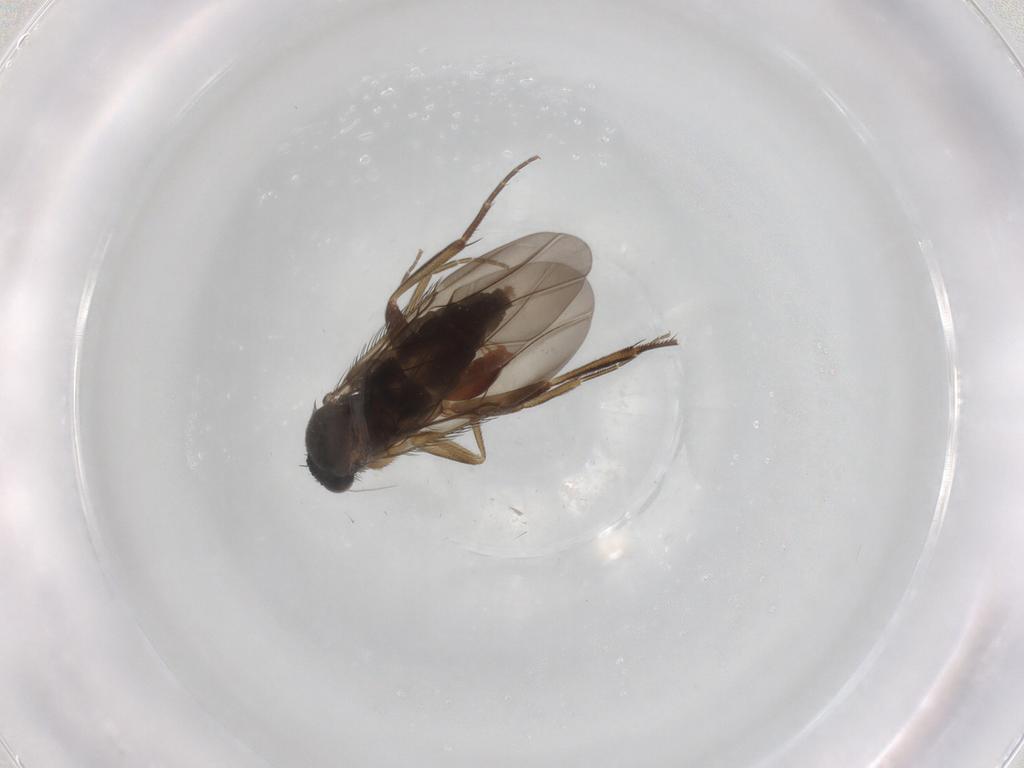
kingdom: Animalia
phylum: Arthropoda
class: Insecta
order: Diptera
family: Phoridae
